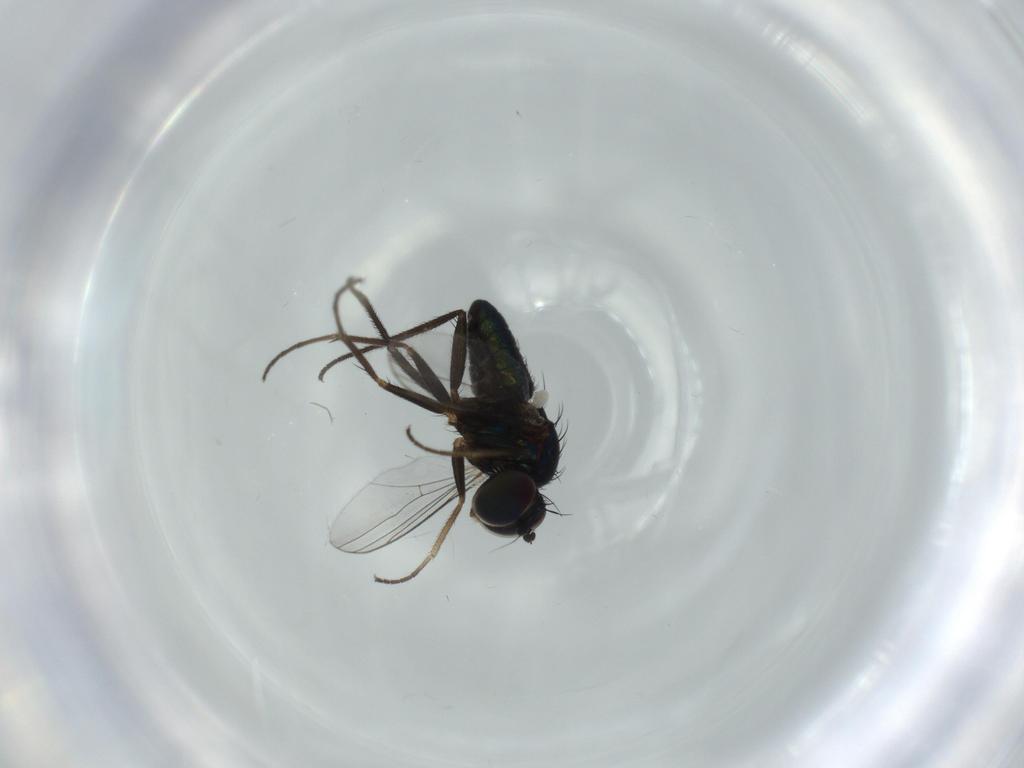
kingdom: Animalia
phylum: Arthropoda
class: Insecta
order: Diptera
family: Dolichopodidae
